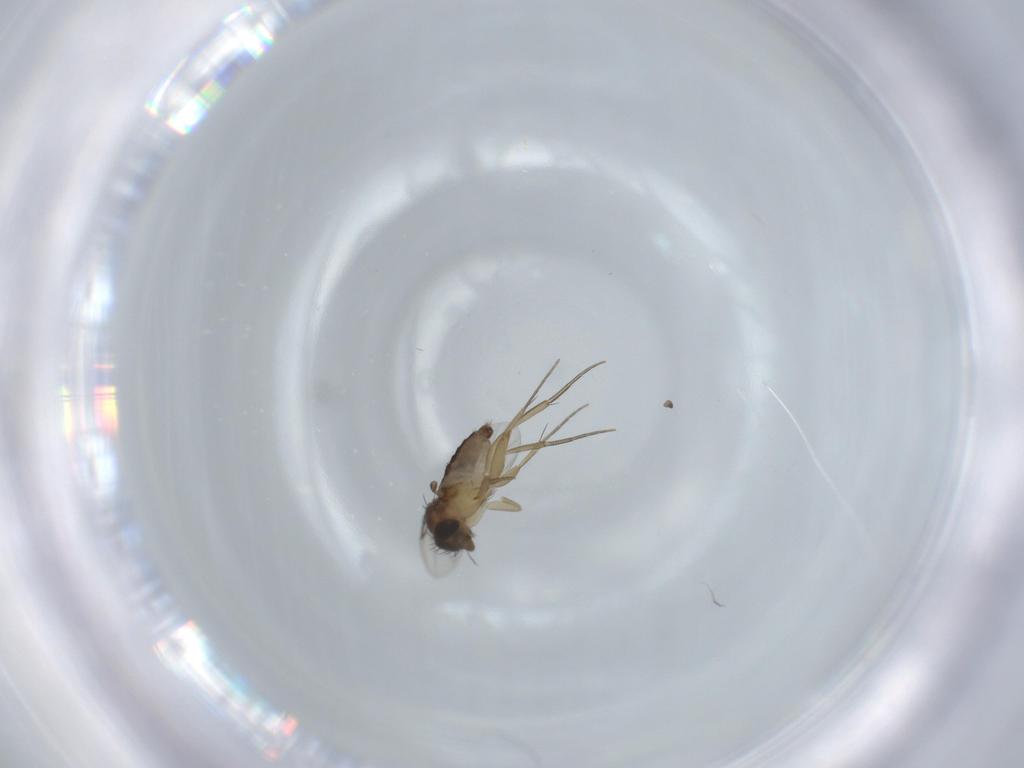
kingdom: Animalia
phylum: Arthropoda
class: Insecta
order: Diptera
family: Phoridae
